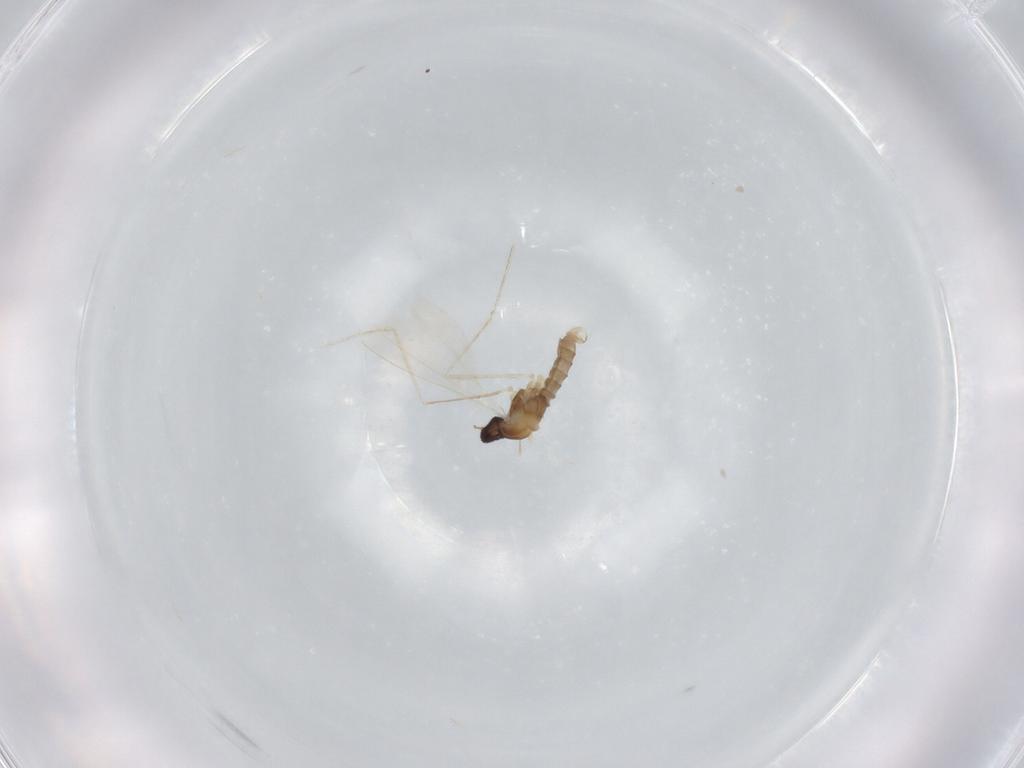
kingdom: Animalia
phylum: Arthropoda
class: Insecta
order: Diptera
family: Cecidomyiidae
